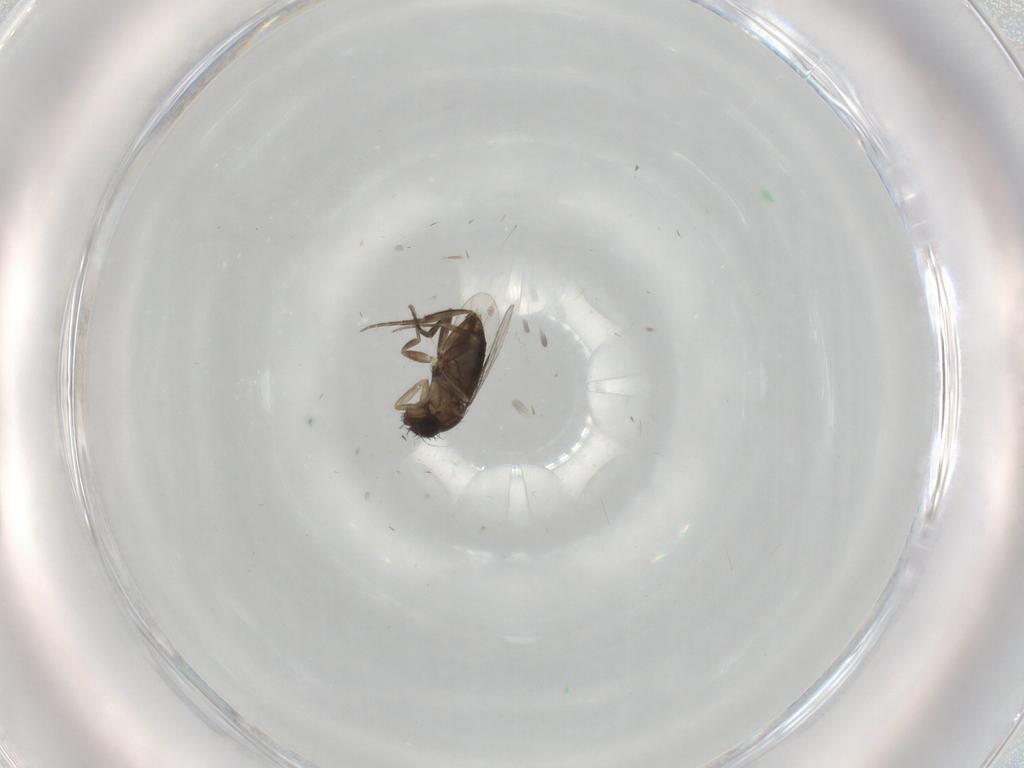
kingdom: Animalia
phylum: Arthropoda
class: Insecta
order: Diptera
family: Phoridae
